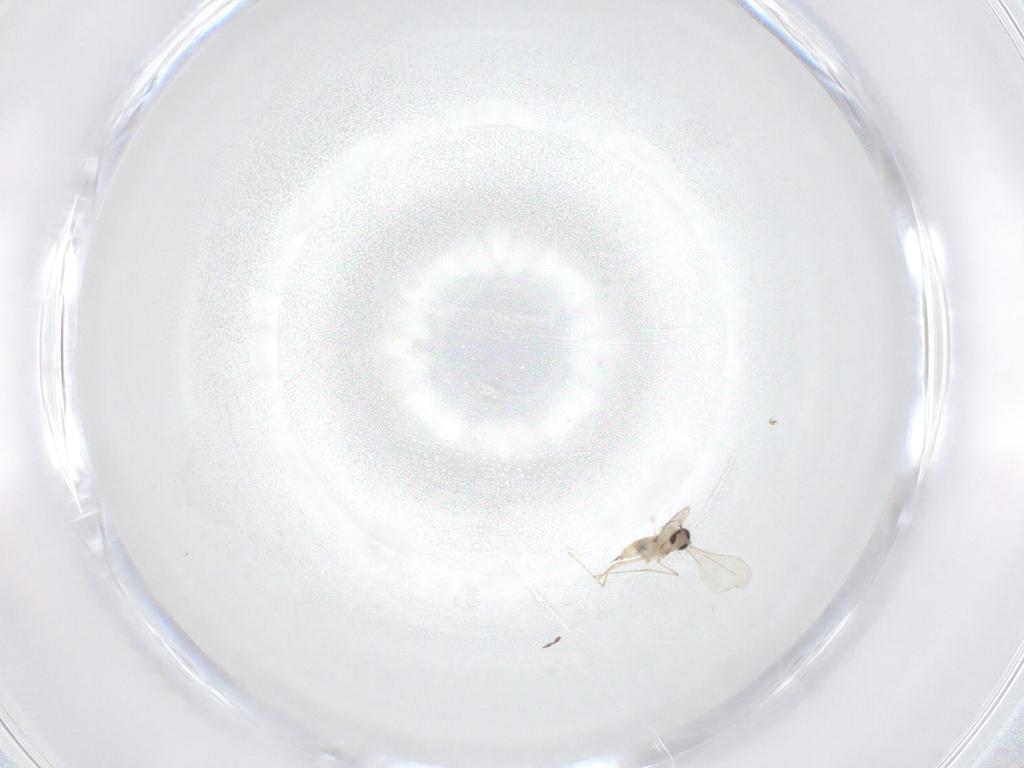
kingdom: Animalia
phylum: Arthropoda
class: Insecta
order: Diptera
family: Cecidomyiidae
